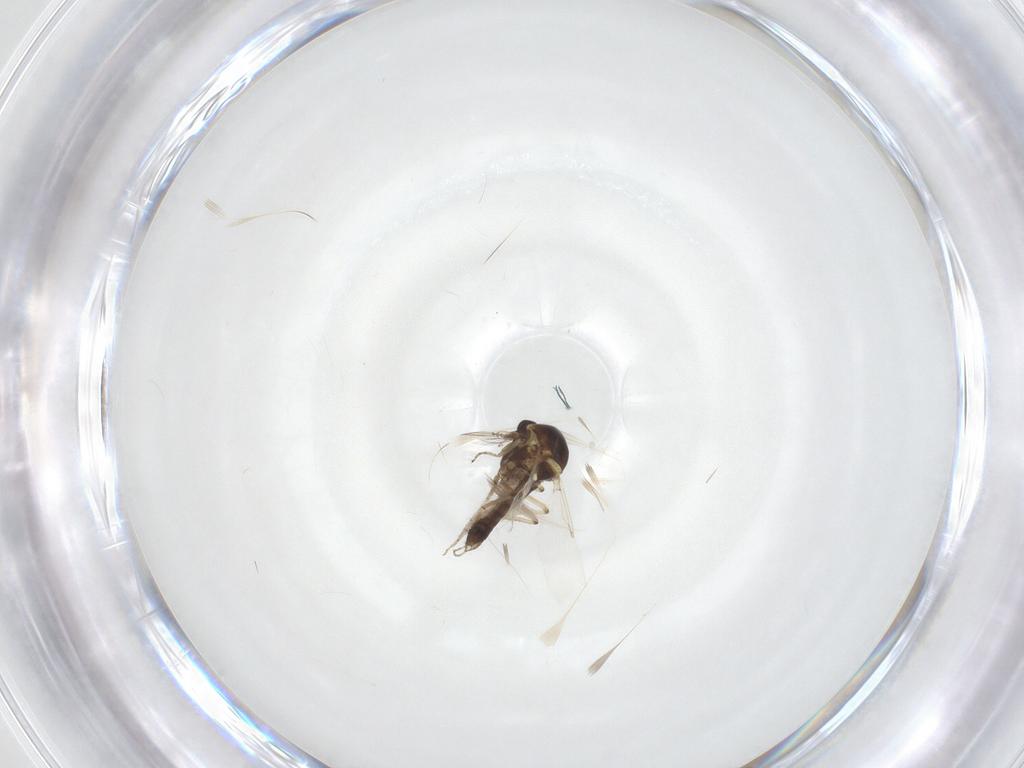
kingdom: Animalia
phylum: Arthropoda
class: Insecta
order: Diptera
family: Ceratopogonidae
